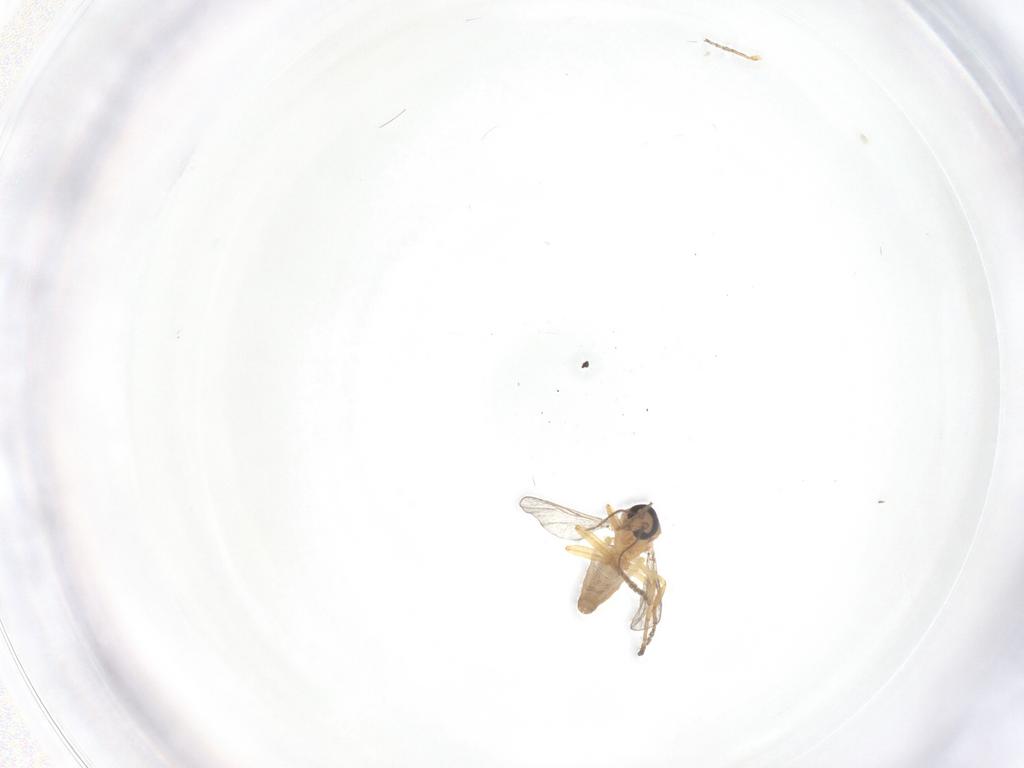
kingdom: Animalia
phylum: Arthropoda
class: Insecta
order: Diptera
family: Ceratopogonidae
